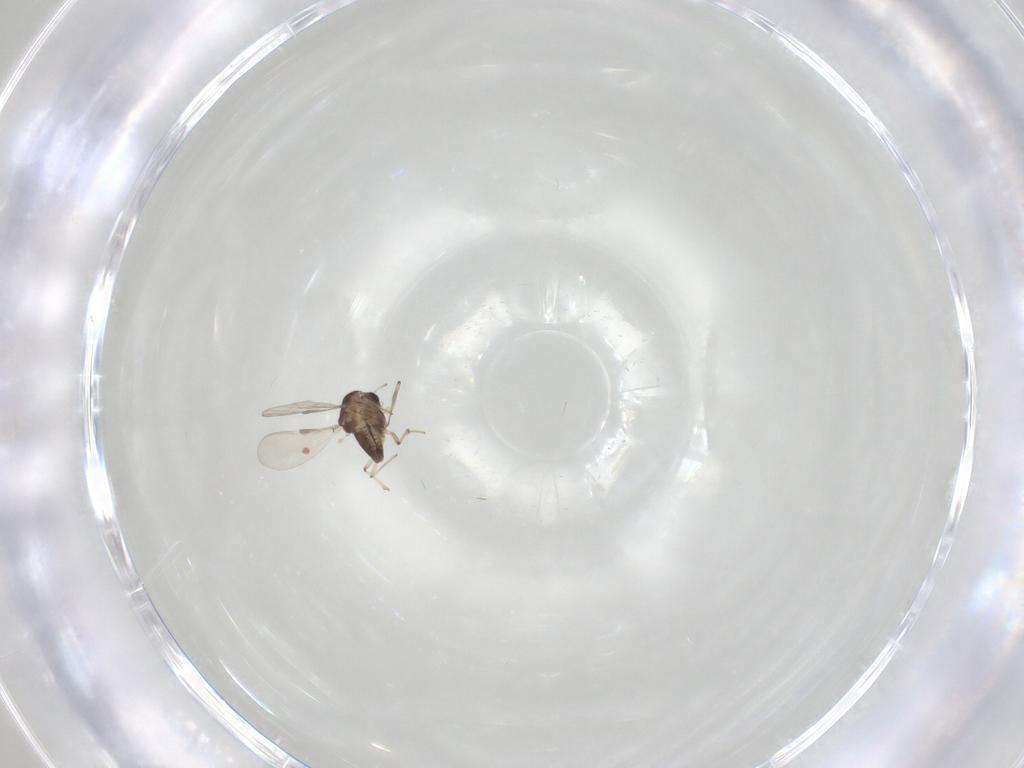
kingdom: Animalia
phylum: Arthropoda
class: Insecta
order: Diptera
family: Chironomidae
